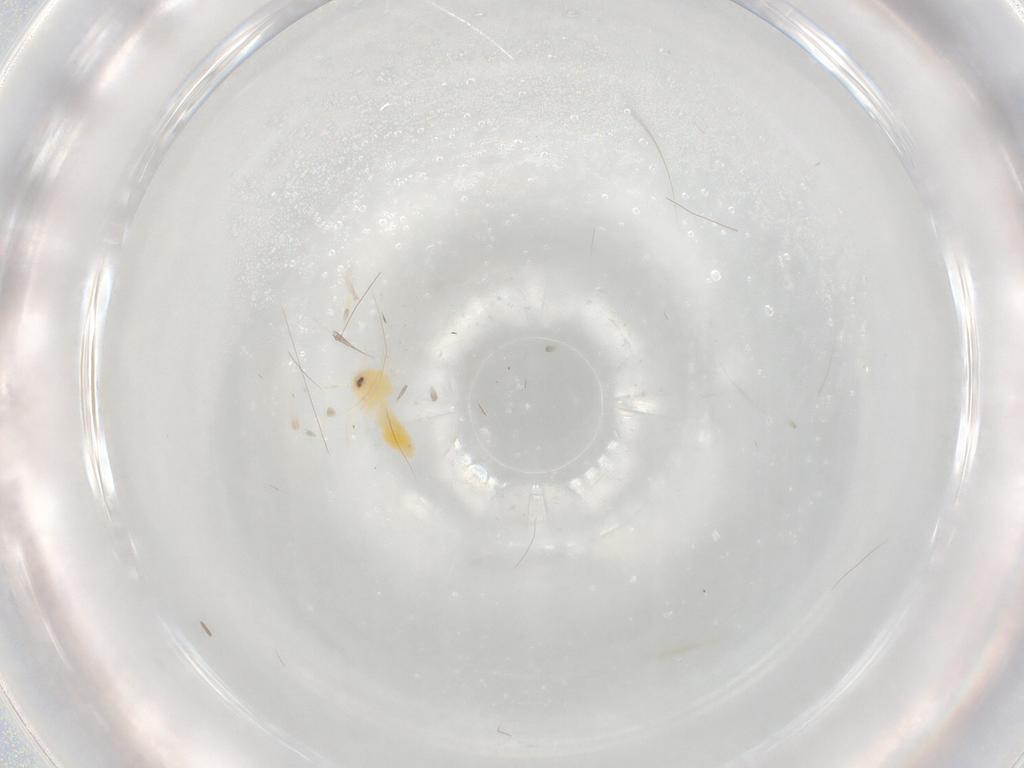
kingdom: Animalia
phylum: Arthropoda
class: Insecta
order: Hemiptera
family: Aleyrodidae
